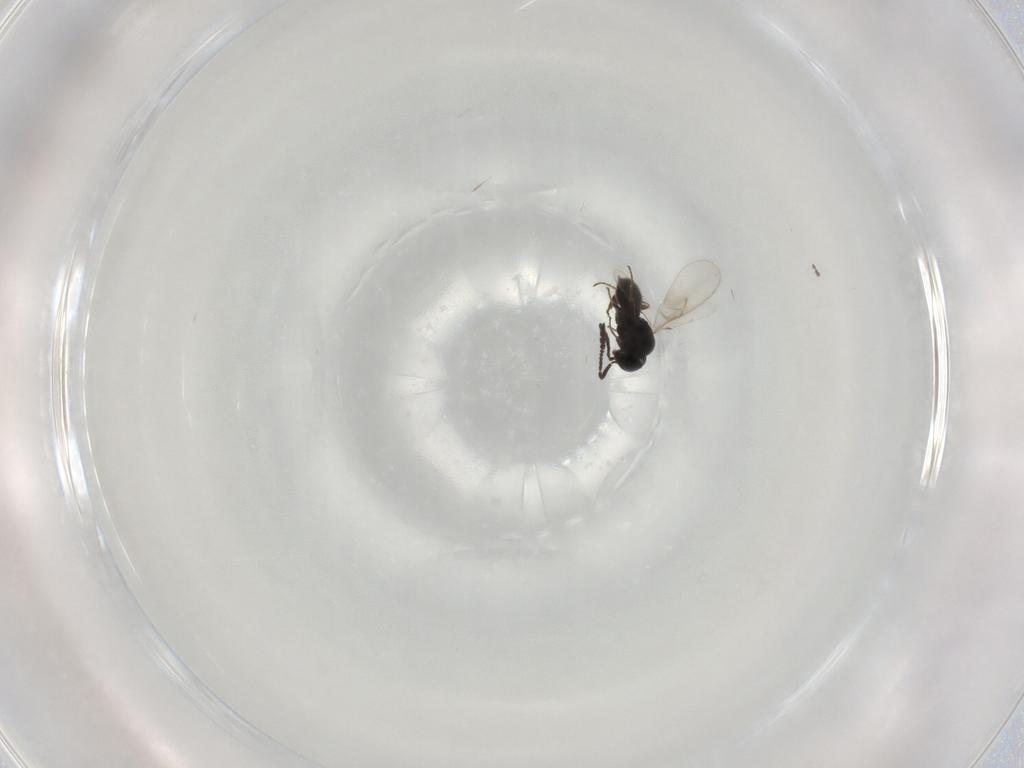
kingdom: Animalia
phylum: Arthropoda
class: Insecta
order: Hymenoptera
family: Scelionidae
